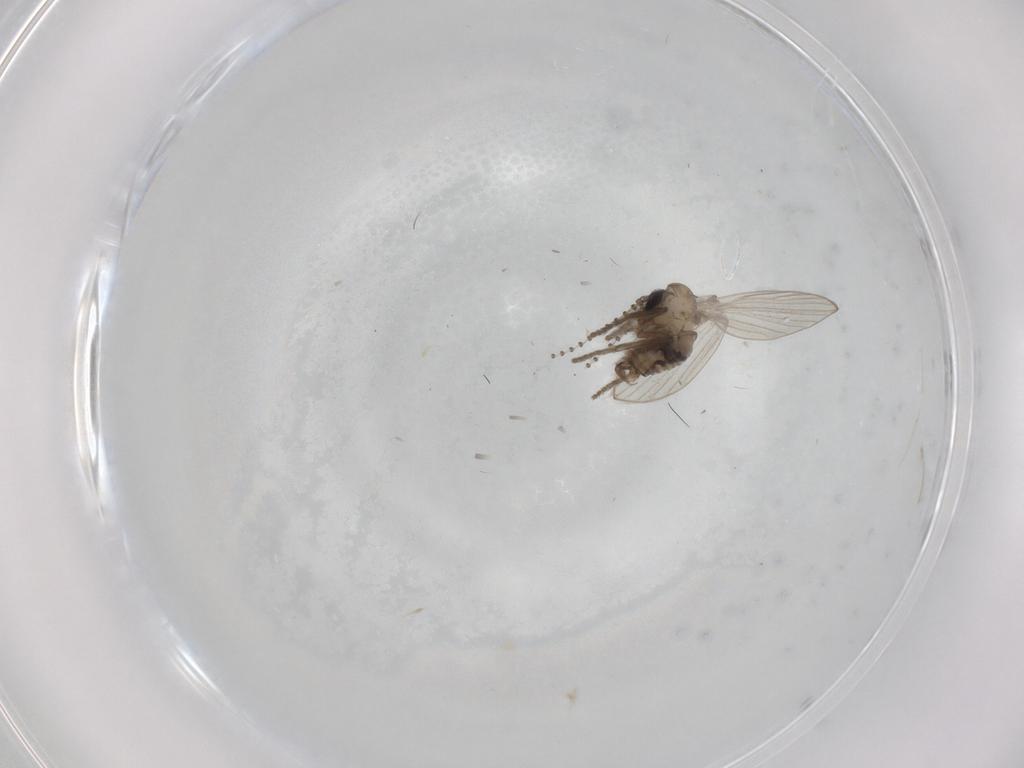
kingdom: Animalia
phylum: Arthropoda
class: Insecta
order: Diptera
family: Psychodidae
